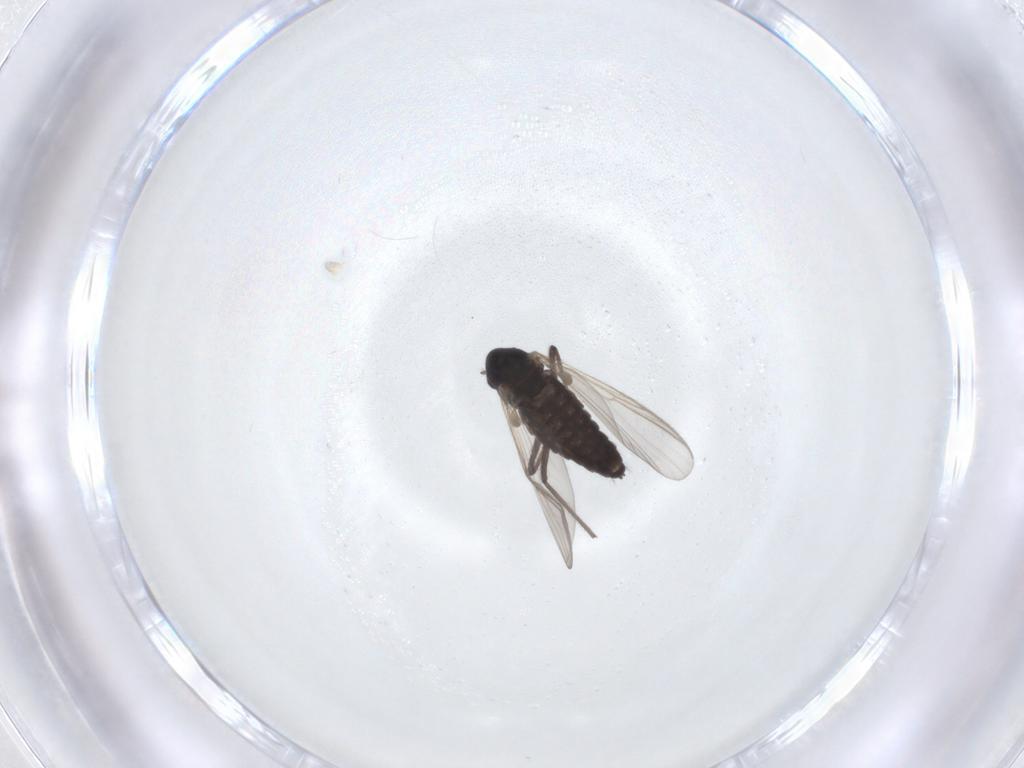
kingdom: Animalia
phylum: Arthropoda
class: Insecta
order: Diptera
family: Chironomidae
